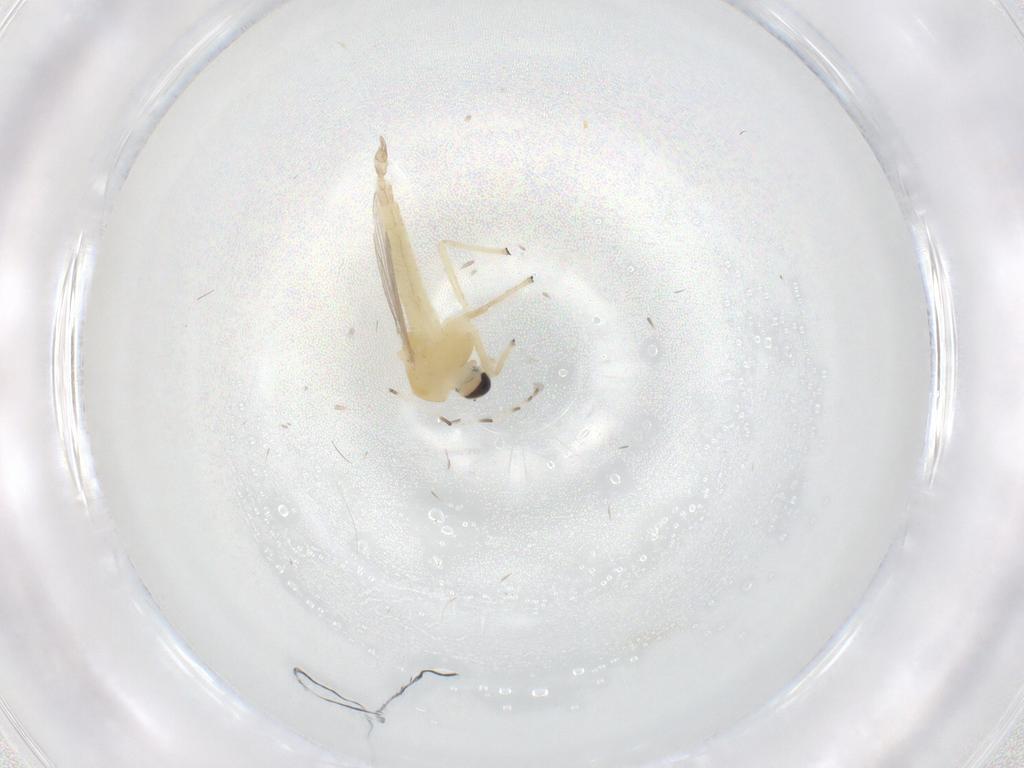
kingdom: Animalia
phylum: Arthropoda
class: Insecta
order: Diptera
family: Chironomidae
